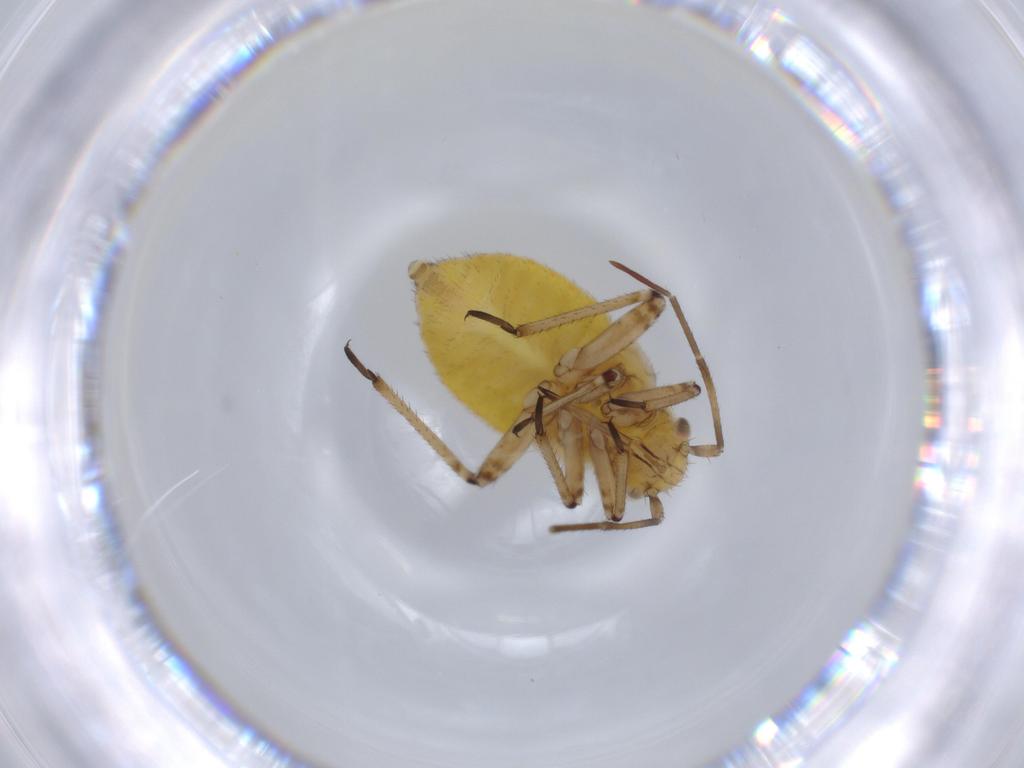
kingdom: Animalia
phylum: Arthropoda
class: Insecta
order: Hemiptera
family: Miridae
